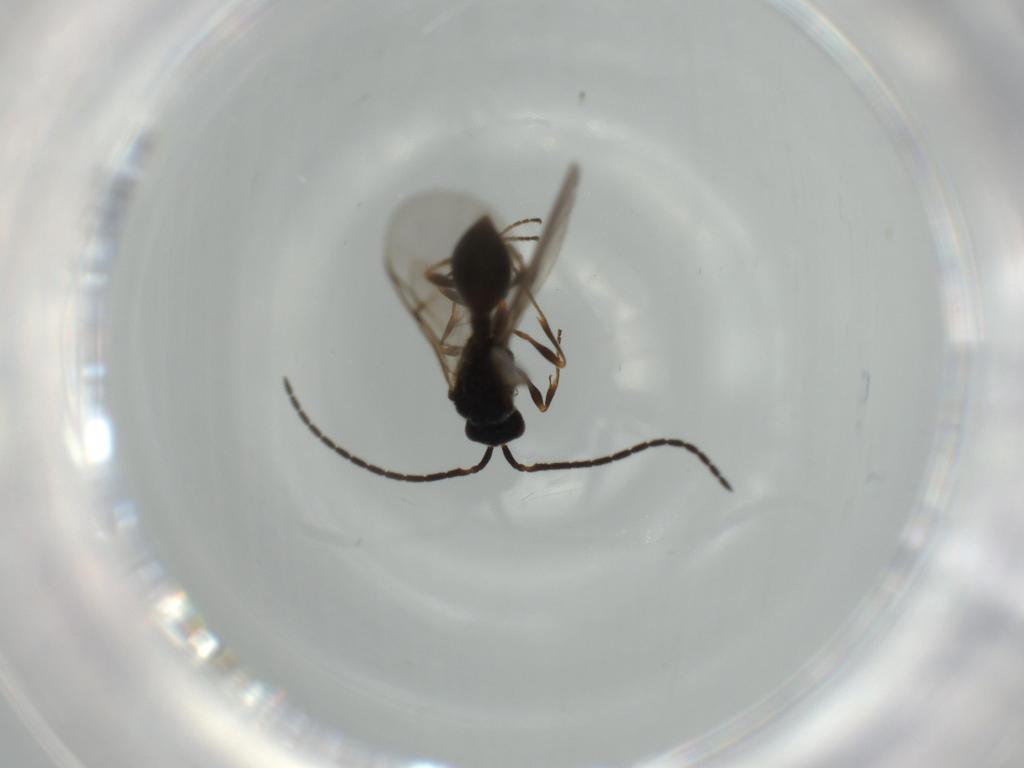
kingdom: Animalia
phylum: Arthropoda
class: Insecta
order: Hymenoptera
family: Diapriidae
